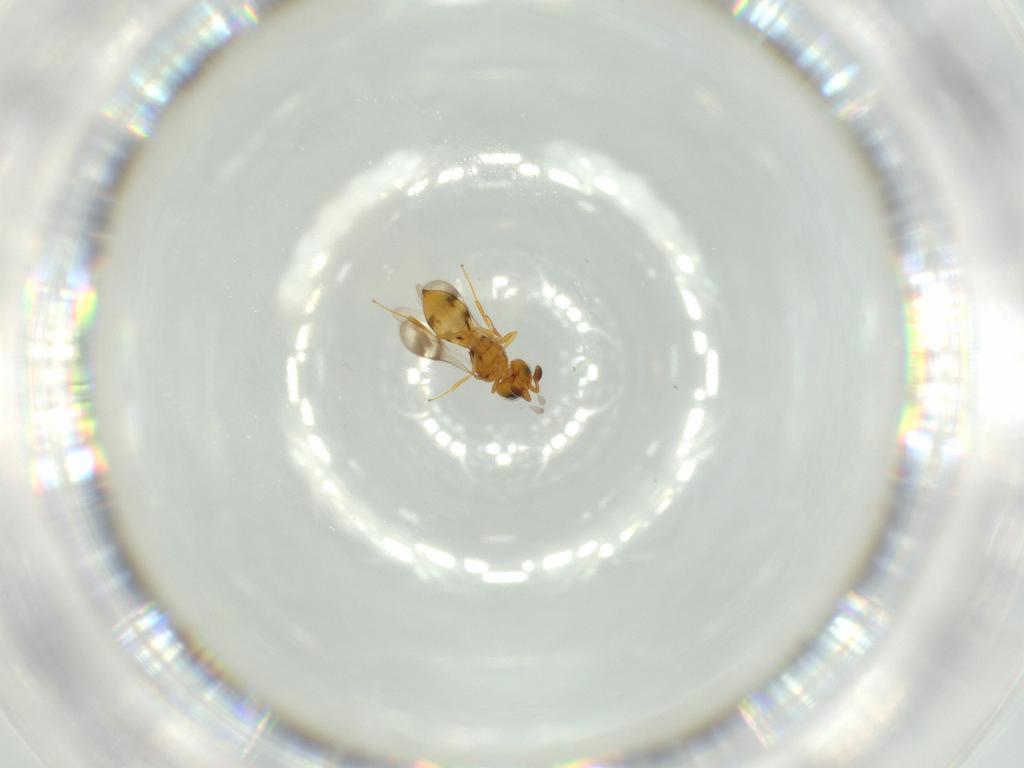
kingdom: Animalia
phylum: Arthropoda
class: Insecta
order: Hymenoptera
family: Scelionidae
